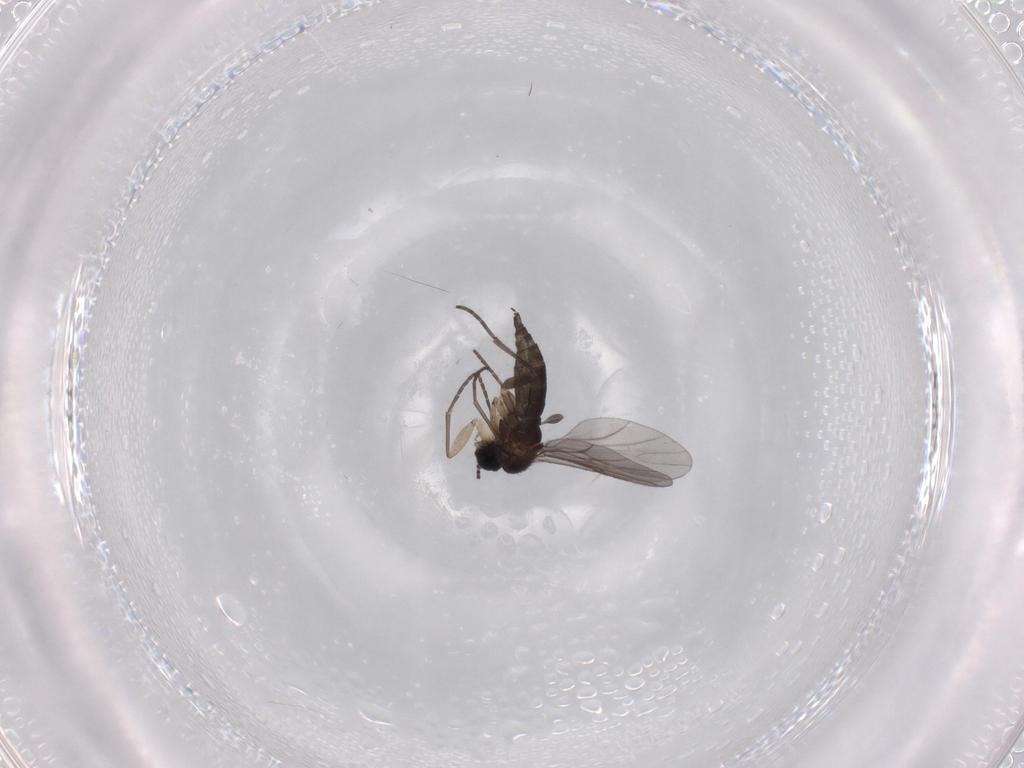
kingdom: Animalia
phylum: Arthropoda
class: Insecta
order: Diptera
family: Sciaridae
